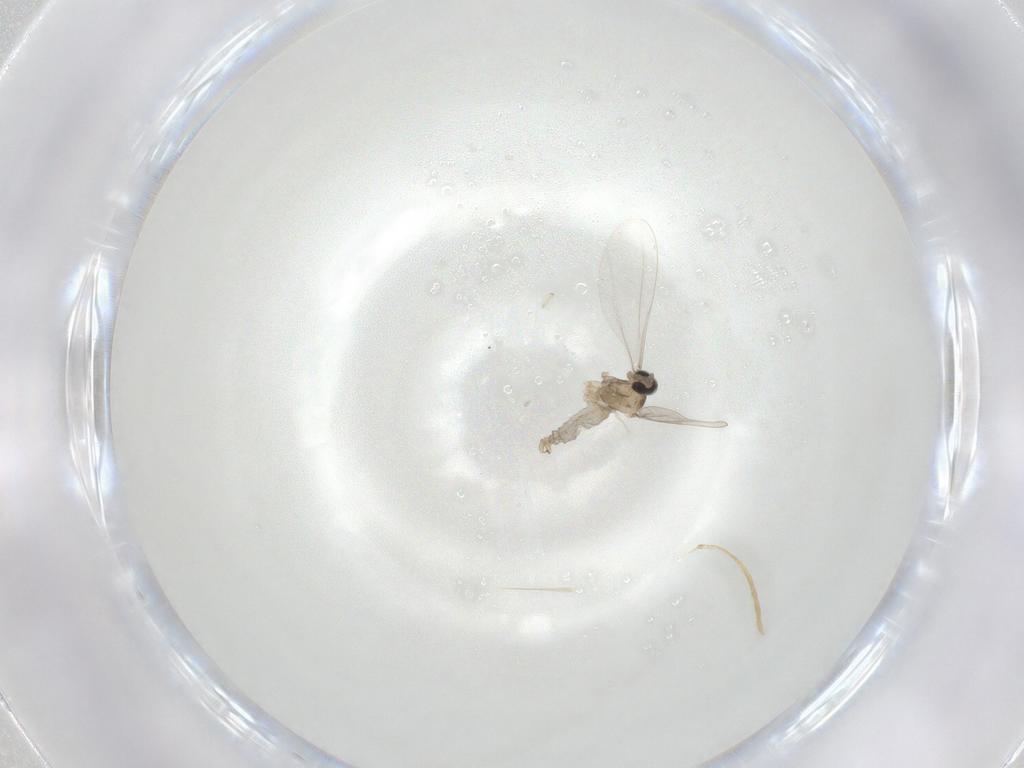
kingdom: Animalia
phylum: Arthropoda
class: Insecta
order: Diptera
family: Cecidomyiidae
